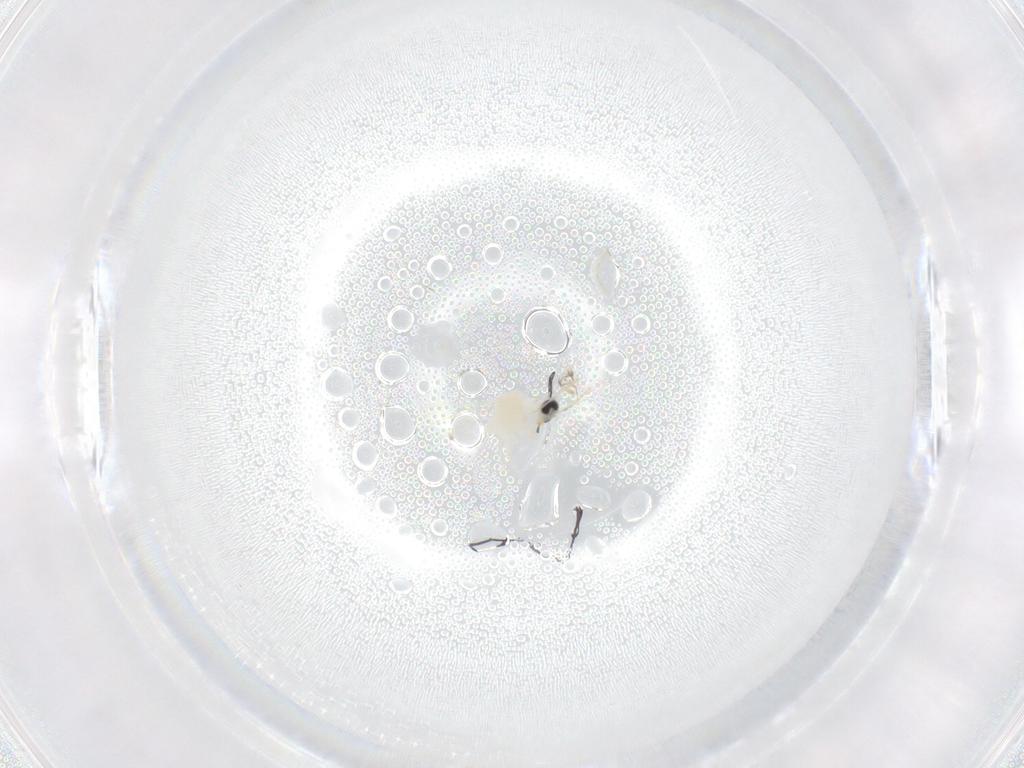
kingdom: Animalia
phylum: Arthropoda
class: Insecta
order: Diptera
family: Cecidomyiidae
